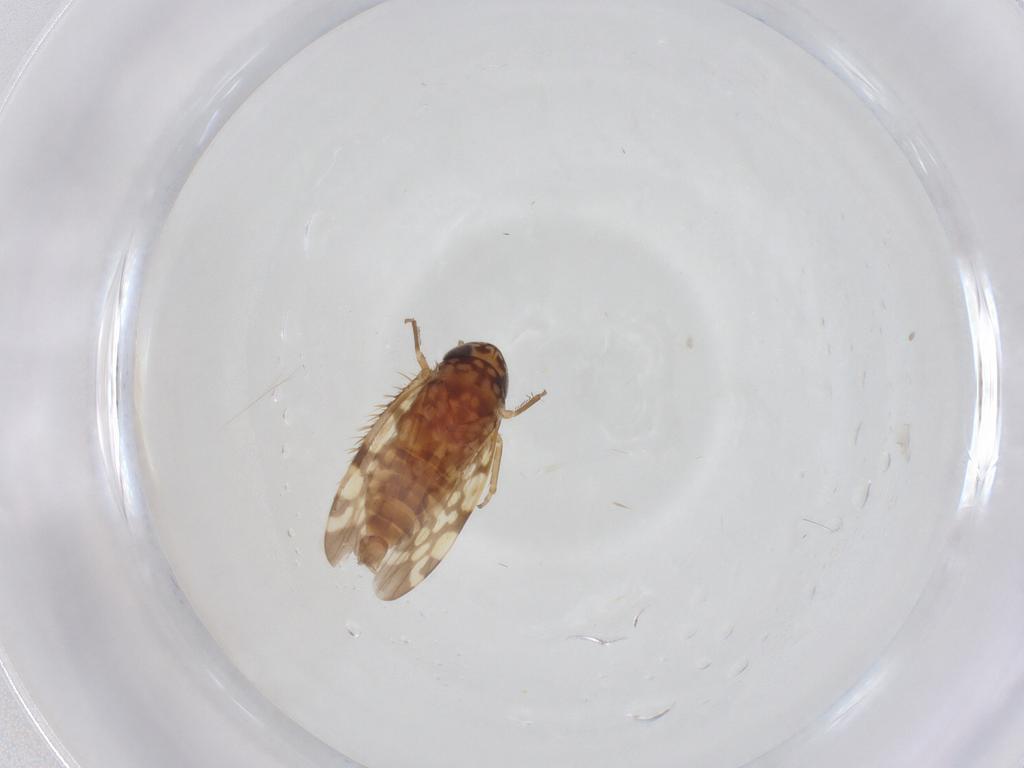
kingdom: Animalia
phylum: Arthropoda
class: Insecta
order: Hemiptera
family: Cicadellidae
